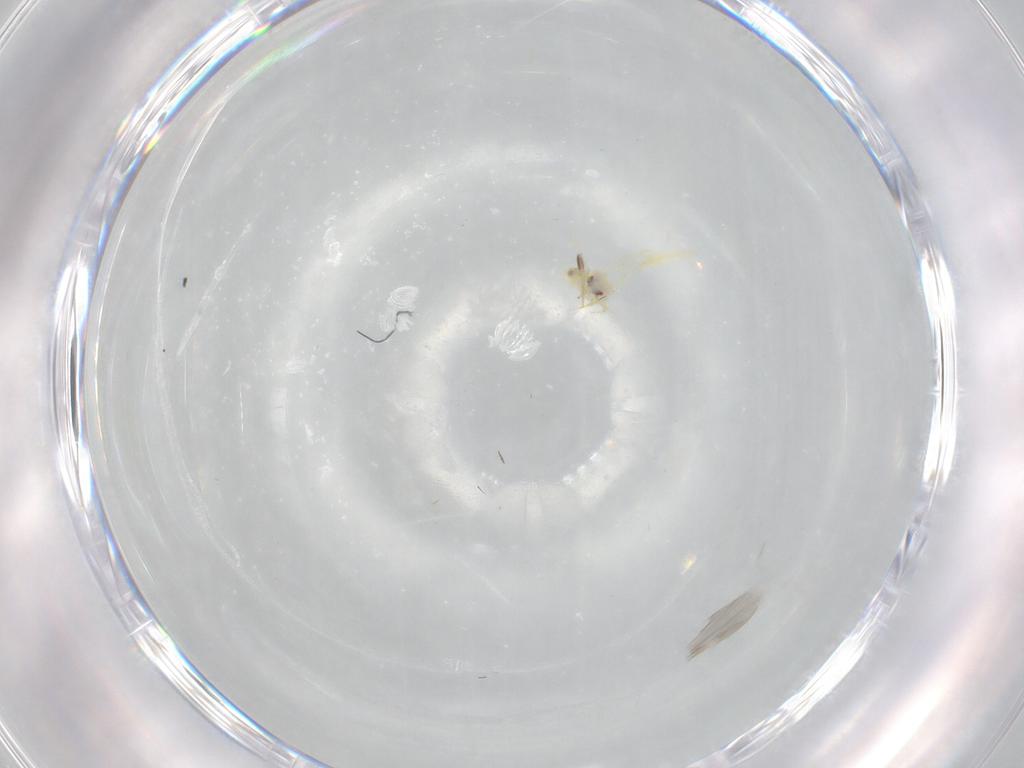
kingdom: Animalia
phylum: Arthropoda
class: Insecta
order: Hemiptera
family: Aleyrodidae
